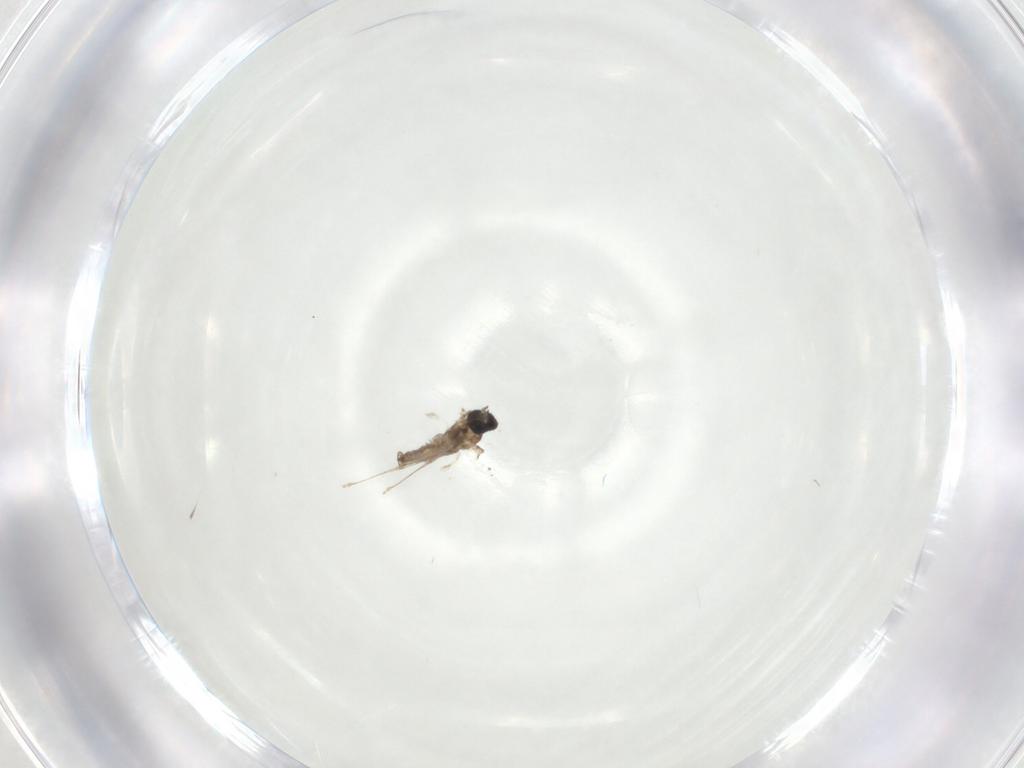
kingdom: Animalia
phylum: Arthropoda
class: Insecta
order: Diptera
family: Cecidomyiidae
